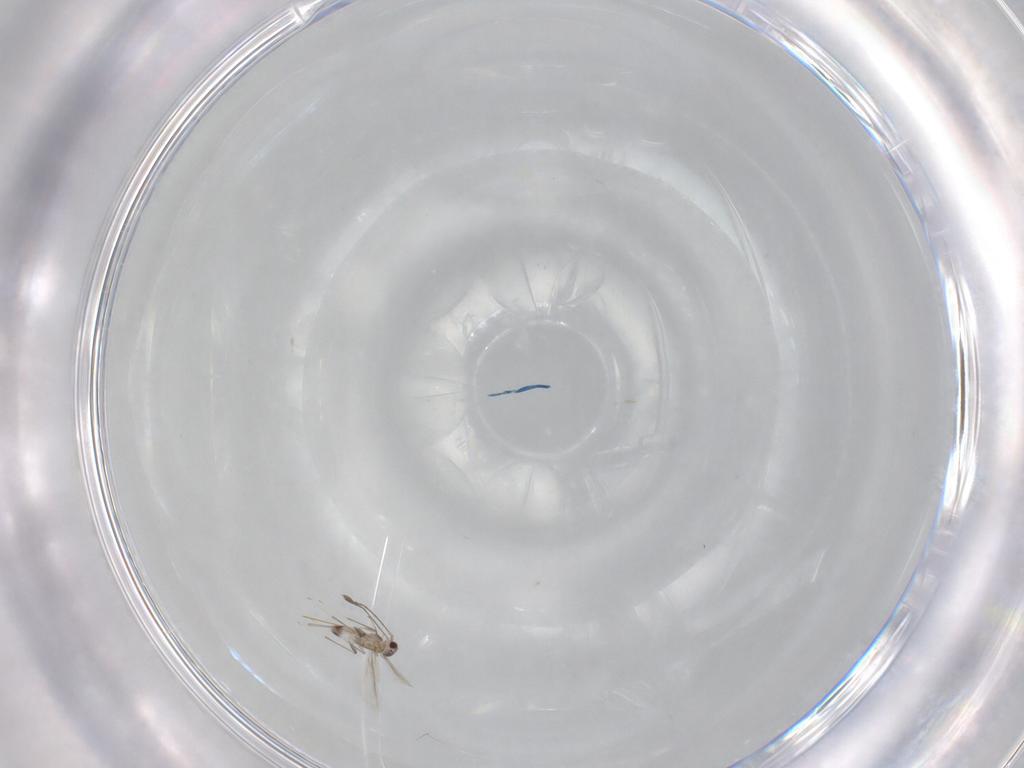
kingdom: Animalia
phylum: Arthropoda
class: Insecta
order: Hymenoptera
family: Mymaridae
